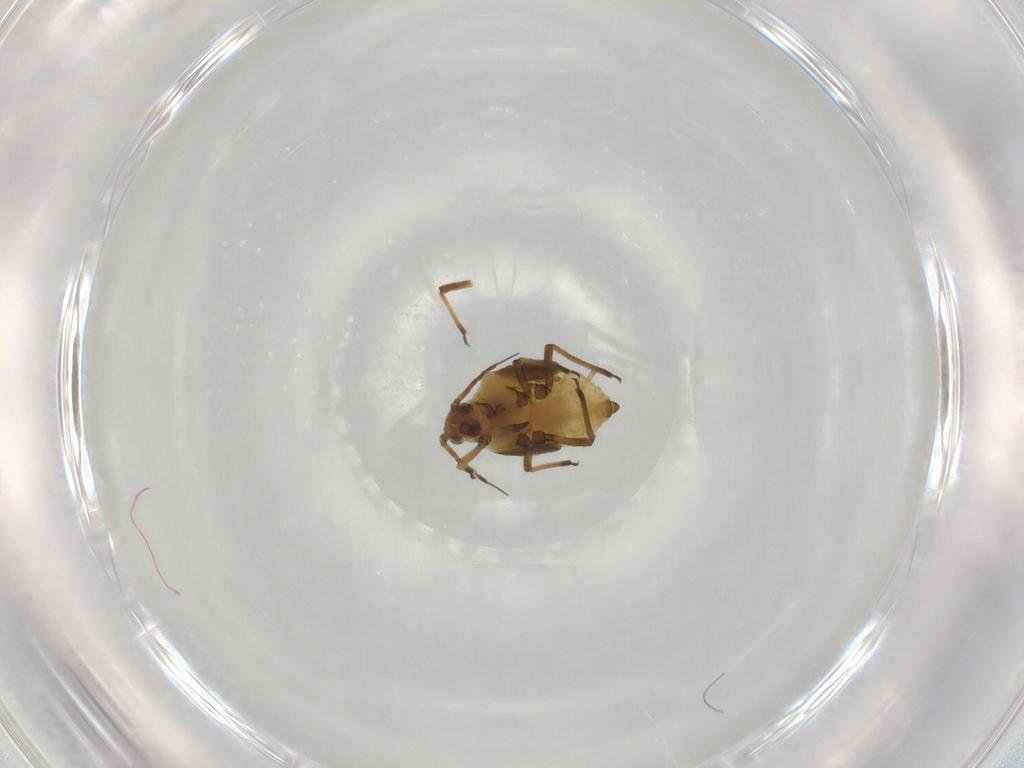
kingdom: Animalia
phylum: Arthropoda
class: Insecta
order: Hemiptera
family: Aphididae
